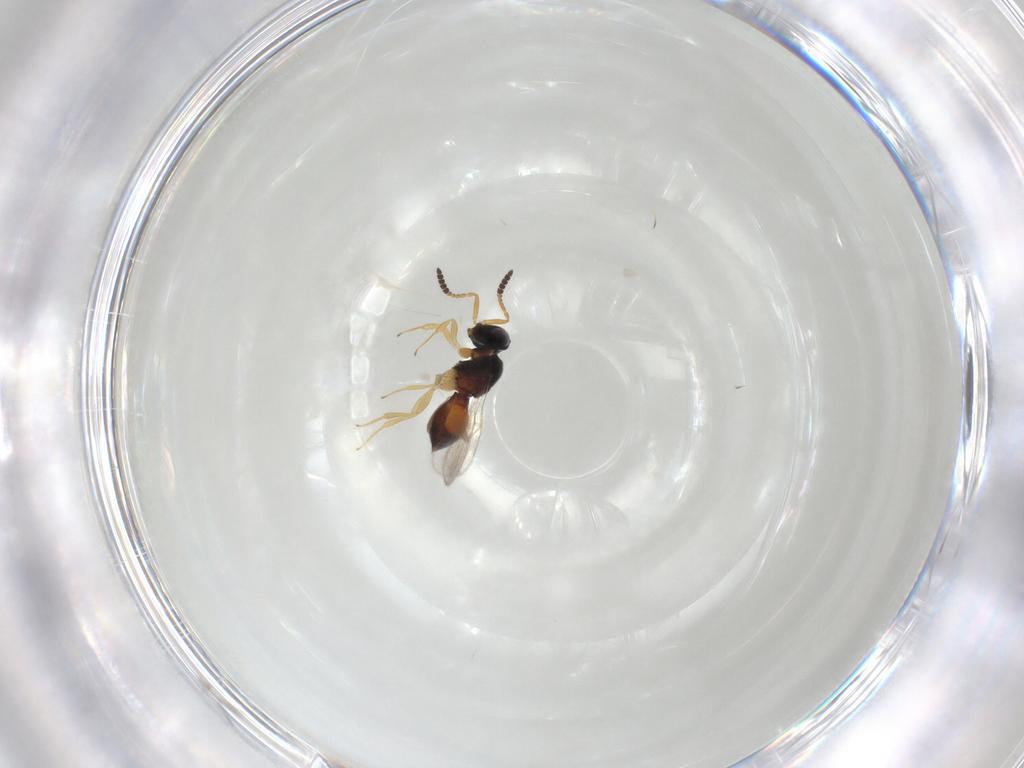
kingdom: Animalia
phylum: Arthropoda
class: Insecta
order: Hymenoptera
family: Scelionidae
